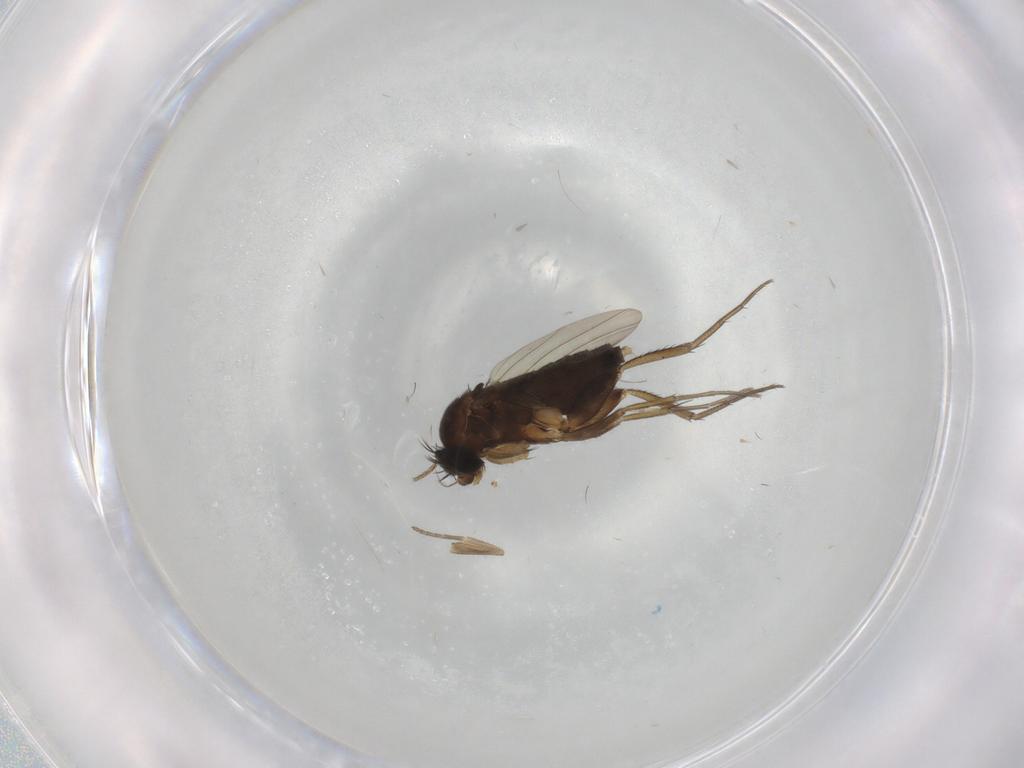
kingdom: Animalia
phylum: Arthropoda
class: Insecta
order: Diptera
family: Phoridae
